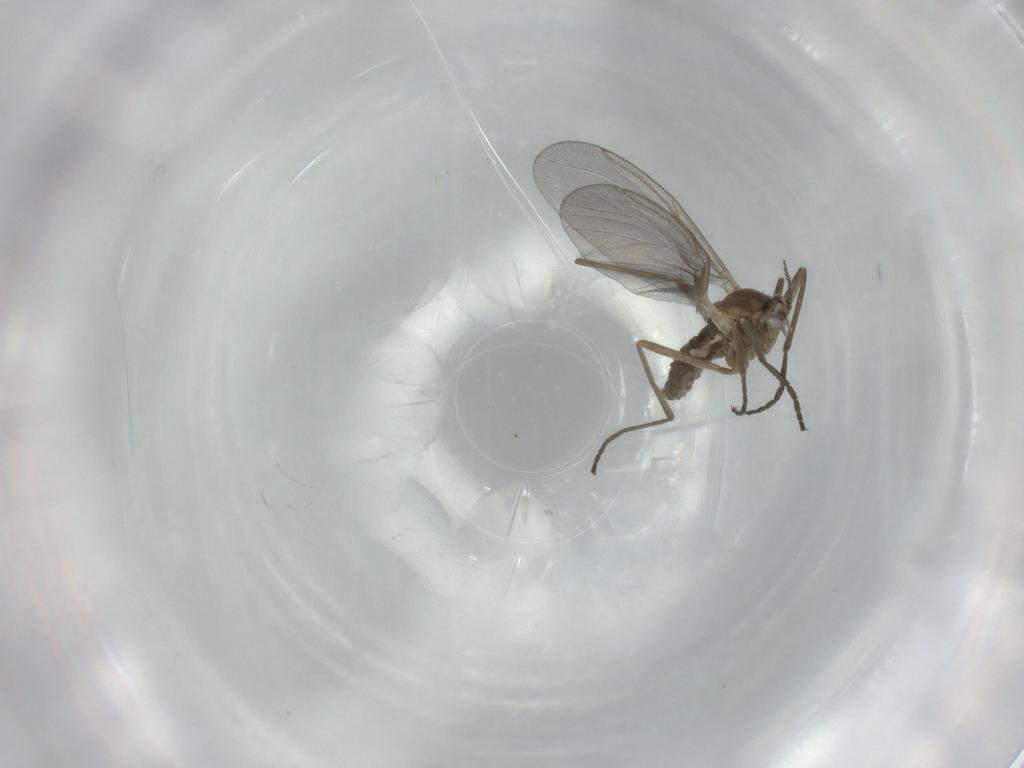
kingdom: Animalia
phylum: Arthropoda
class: Insecta
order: Diptera
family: Cecidomyiidae
